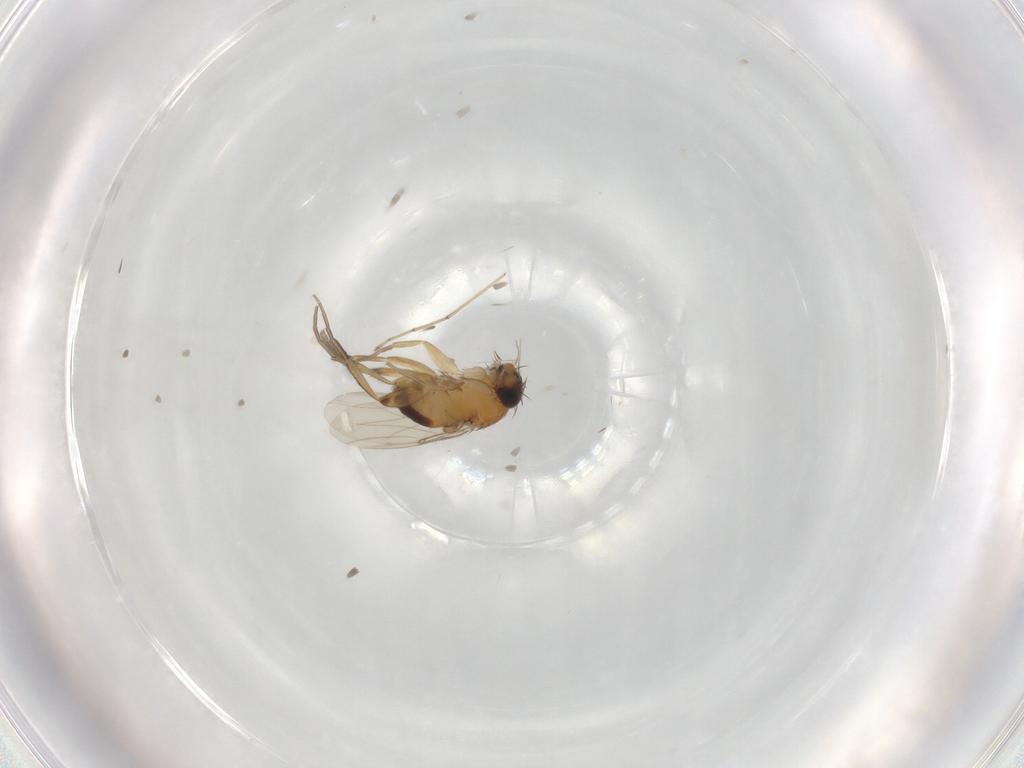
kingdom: Animalia
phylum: Arthropoda
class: Insecta
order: Diptera
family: Cecidomyiidae
